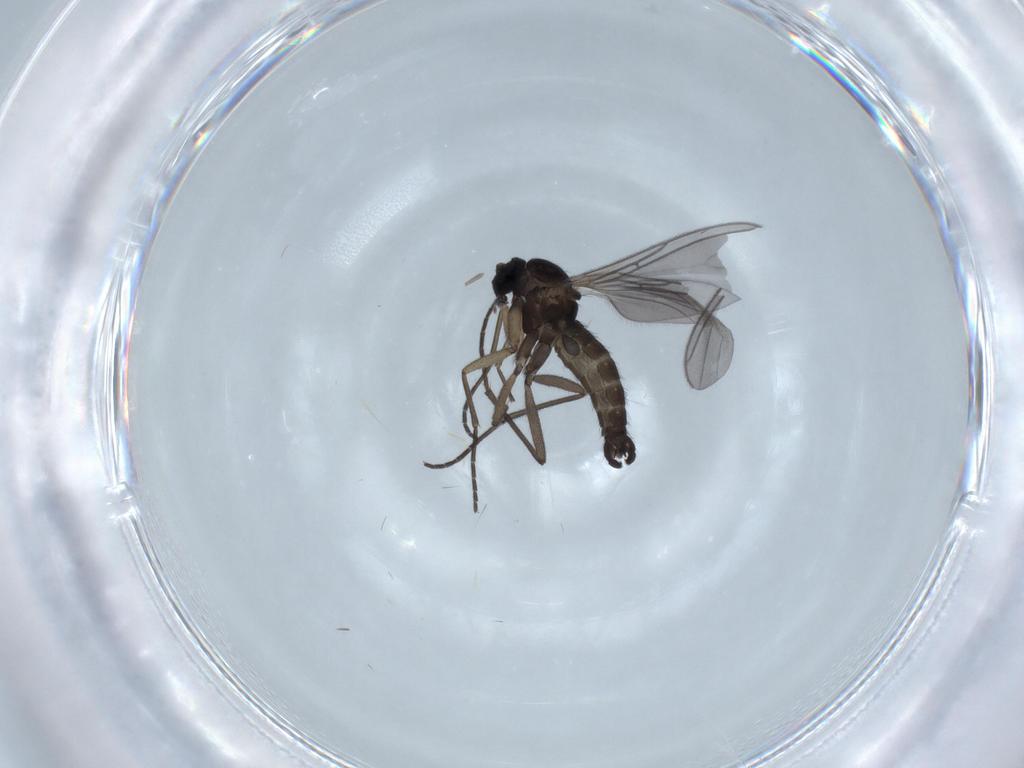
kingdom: Animalia
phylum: Arthropoda
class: Insecta
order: Diptera
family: Sciaridae
